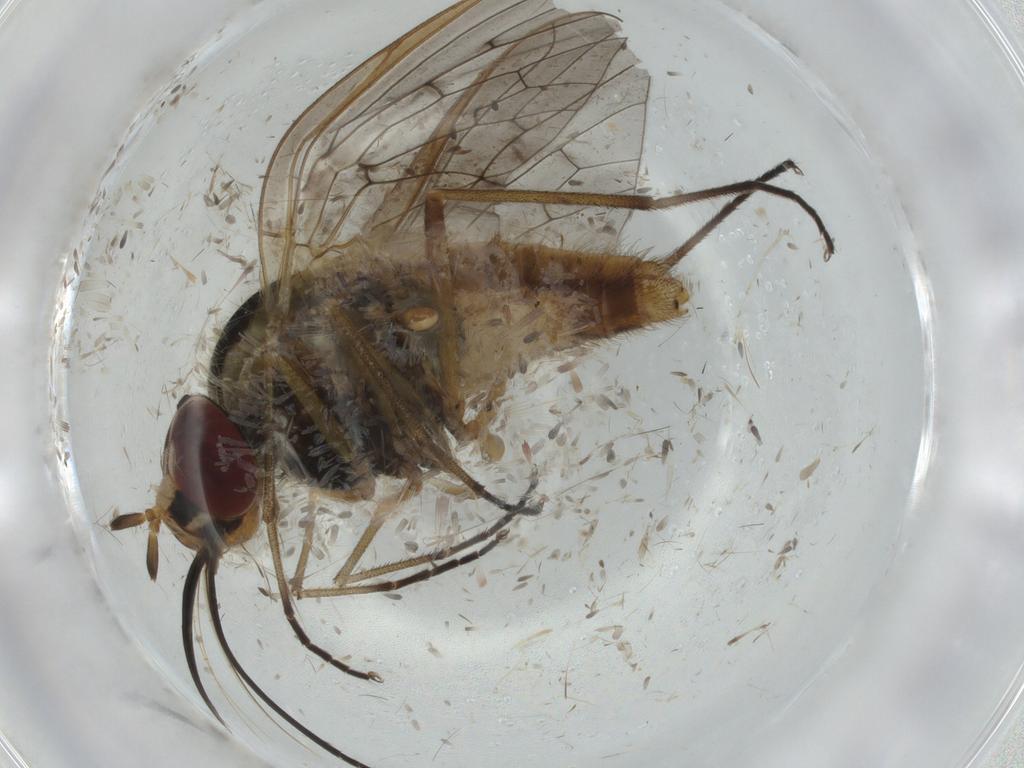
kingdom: Animalia
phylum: Arthropoda
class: Insecta
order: Diptera
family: Bombyliidae
